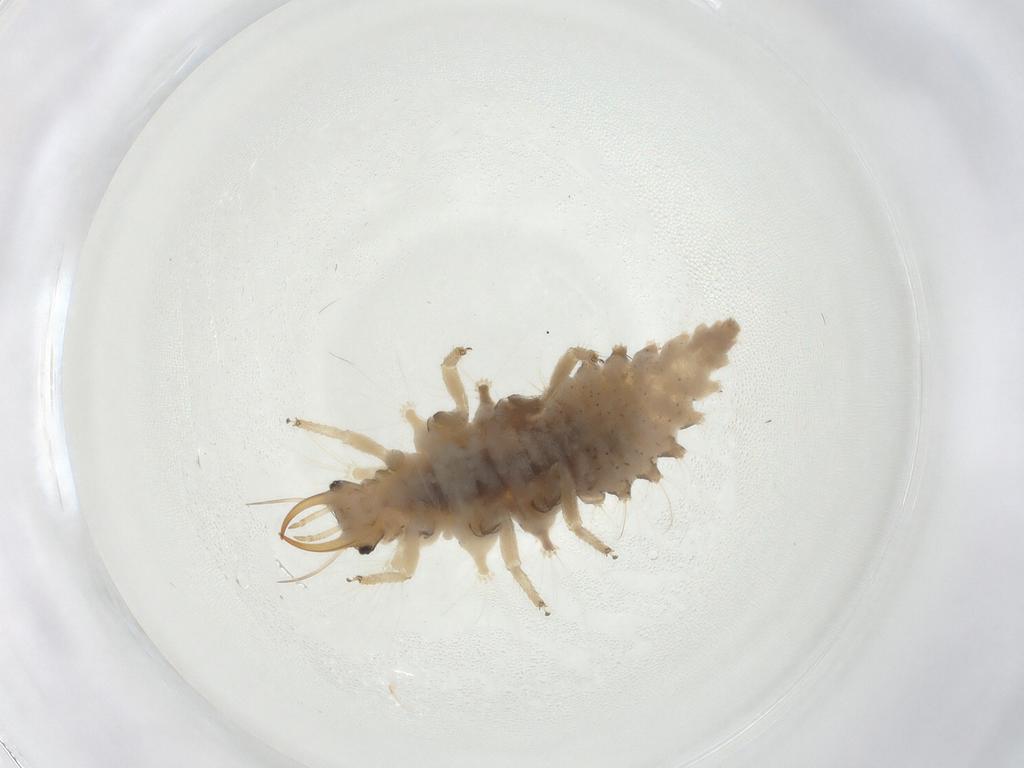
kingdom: Animalia
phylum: Arthropoda
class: Insecta
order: Neuroptera
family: Chrysopidae
